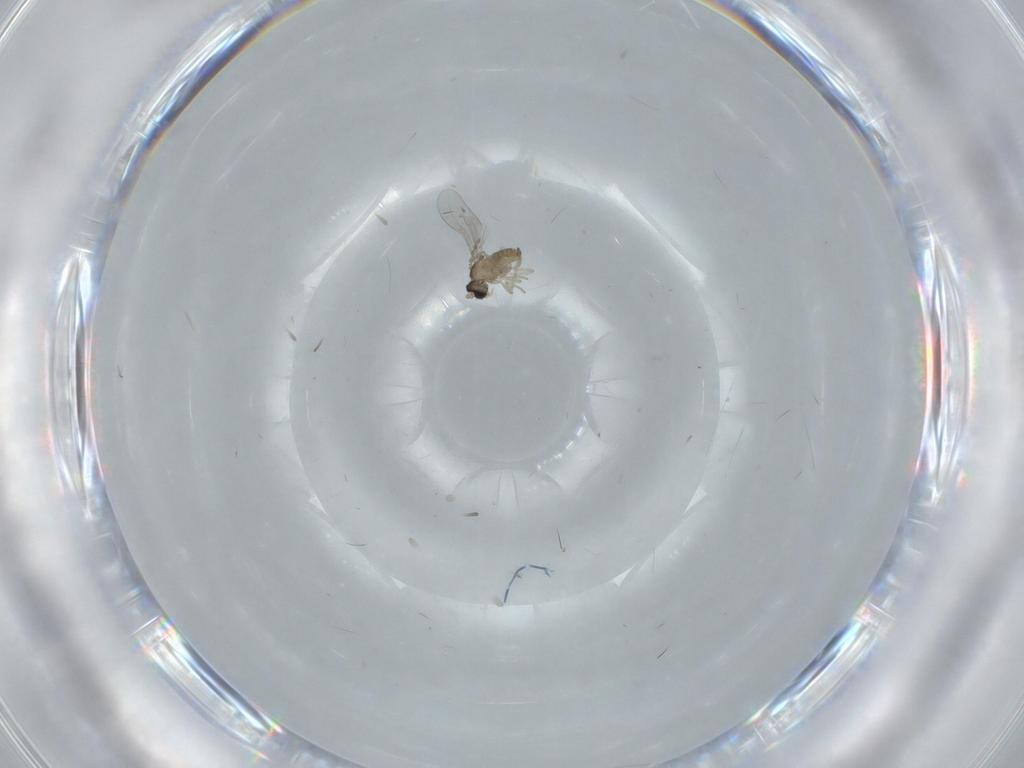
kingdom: Animalia
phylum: Arthropoda
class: Insecta
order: Diptera
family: Cecidomyiidae
